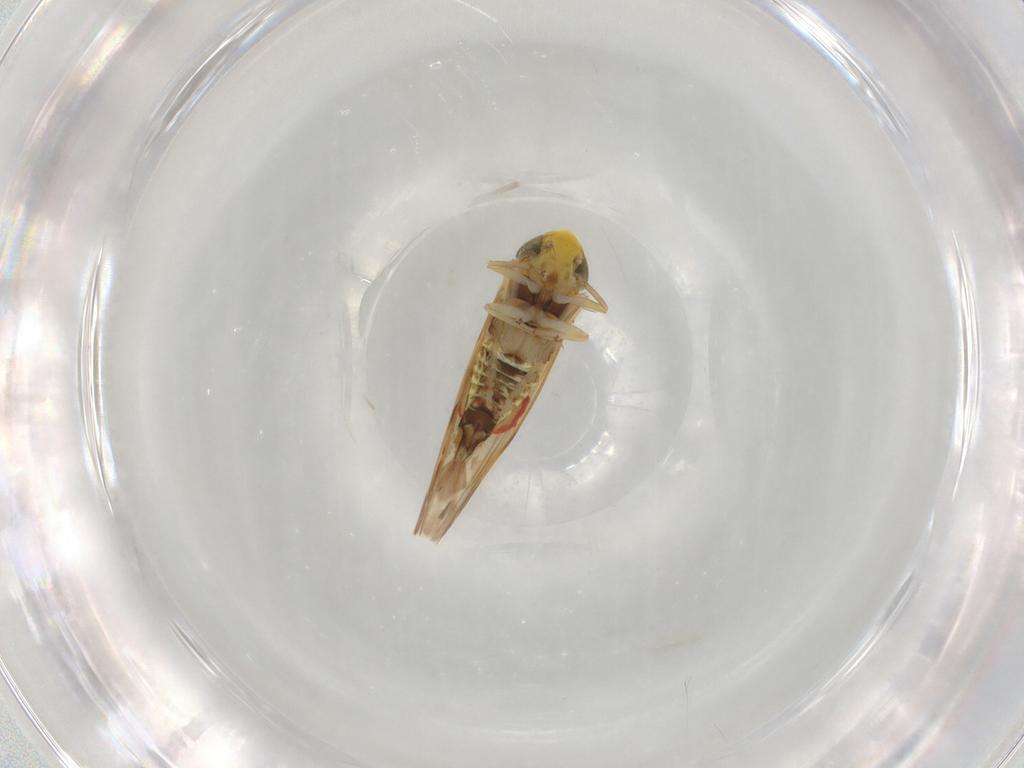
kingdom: Animalia
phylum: Arthropoda
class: Insecta
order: Hemiptera
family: Cicadellidae
